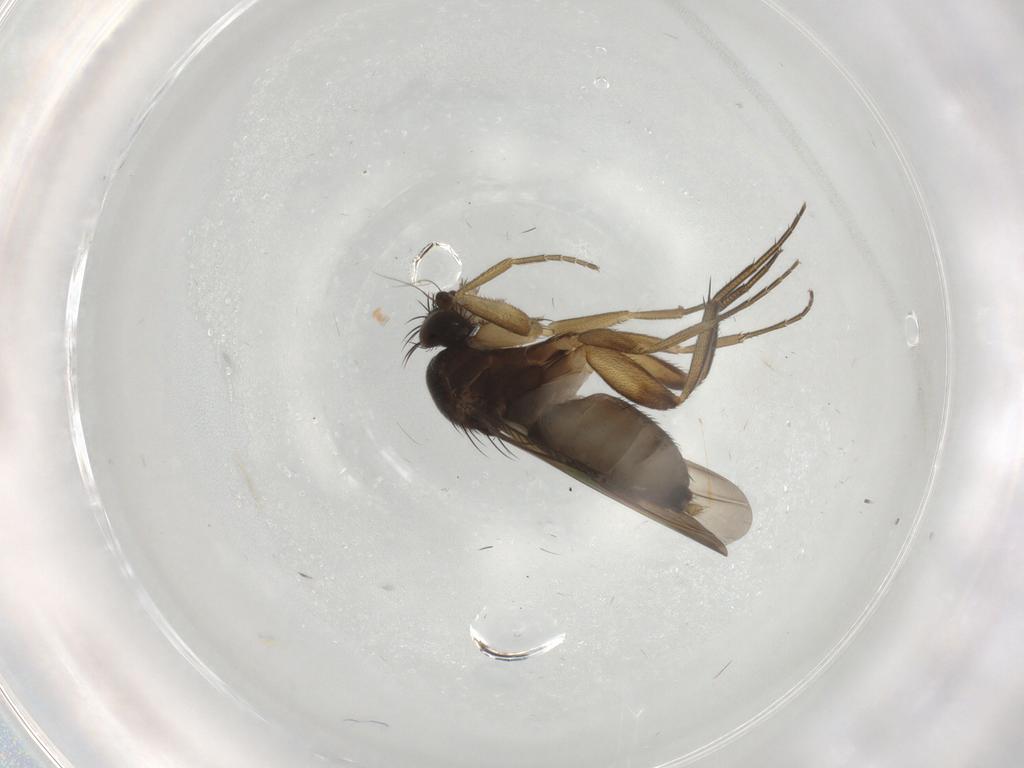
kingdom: Animalia
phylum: Arthropoda
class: Insecta
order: Diptera
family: Phoridae
